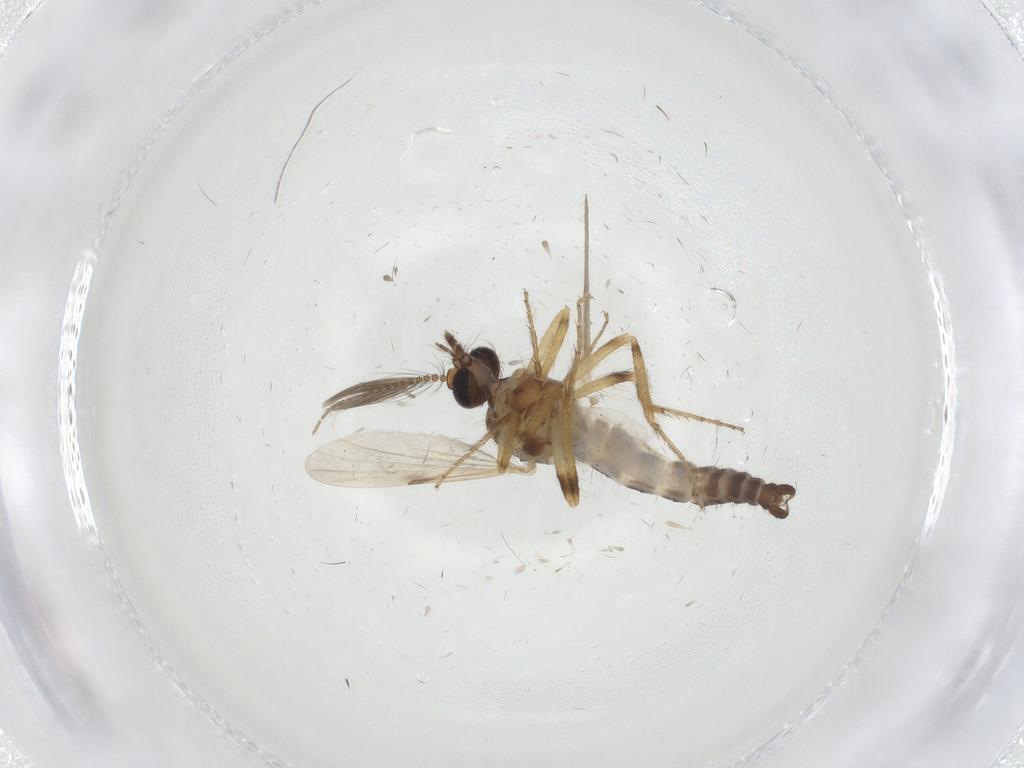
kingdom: Animalia
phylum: Arthropoda
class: Insecta
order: Diptera
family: Ceratopogonidae
